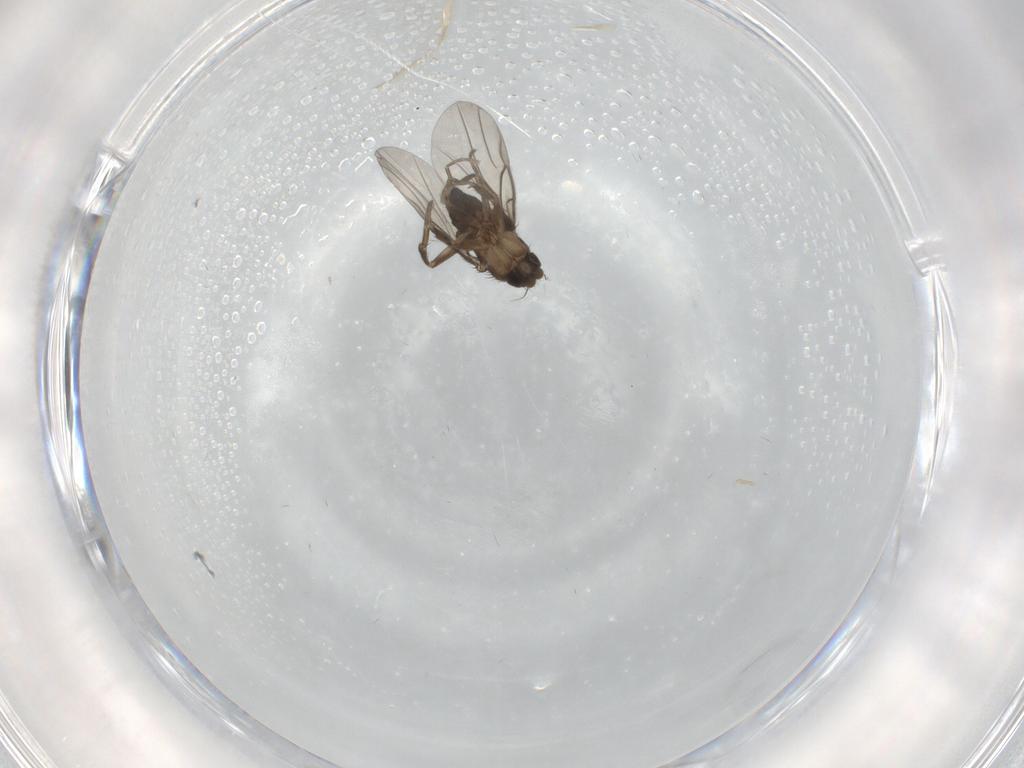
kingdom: Animalia
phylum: Arthropoda
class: Insecta
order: Diptera
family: Phoridae
